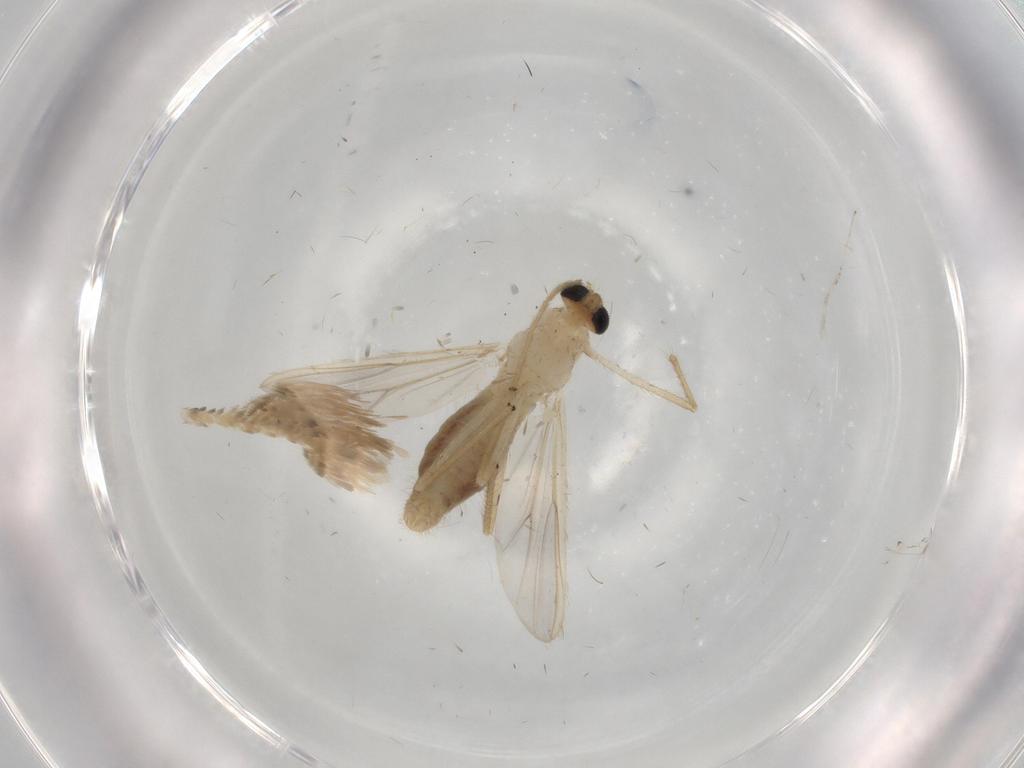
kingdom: Animalia
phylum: Arthropoda
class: Insecta
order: Diptera
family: Chironomidae
